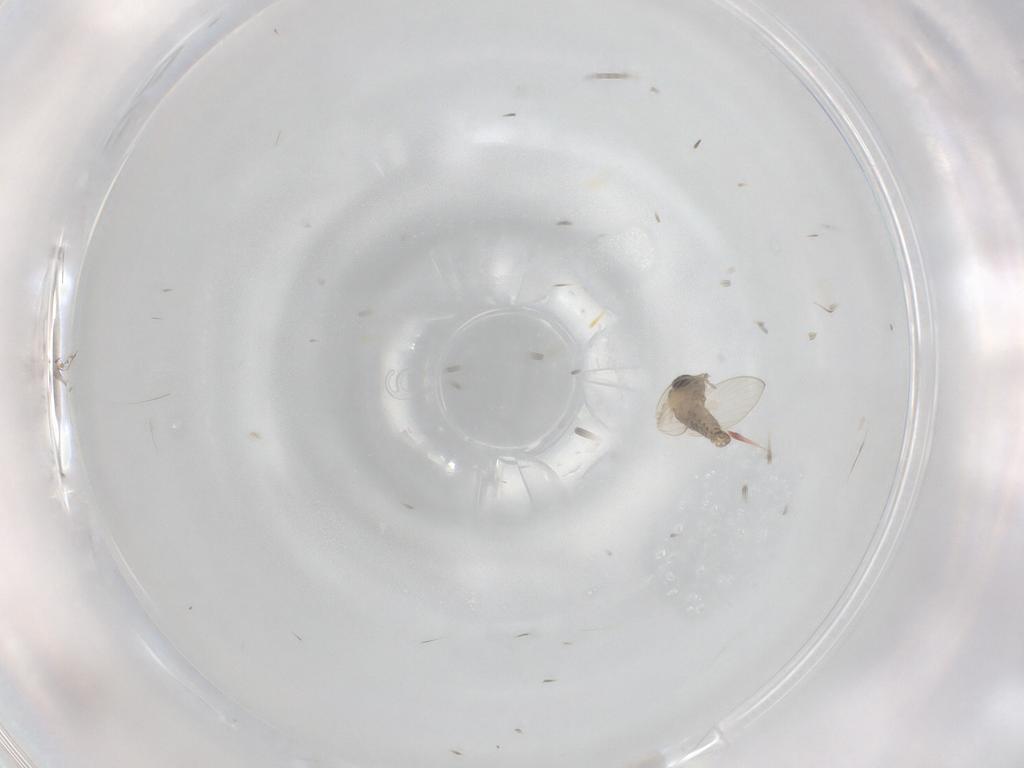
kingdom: Animalia
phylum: Arthropoda
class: Insecta
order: Diptera
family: Psychodidae
